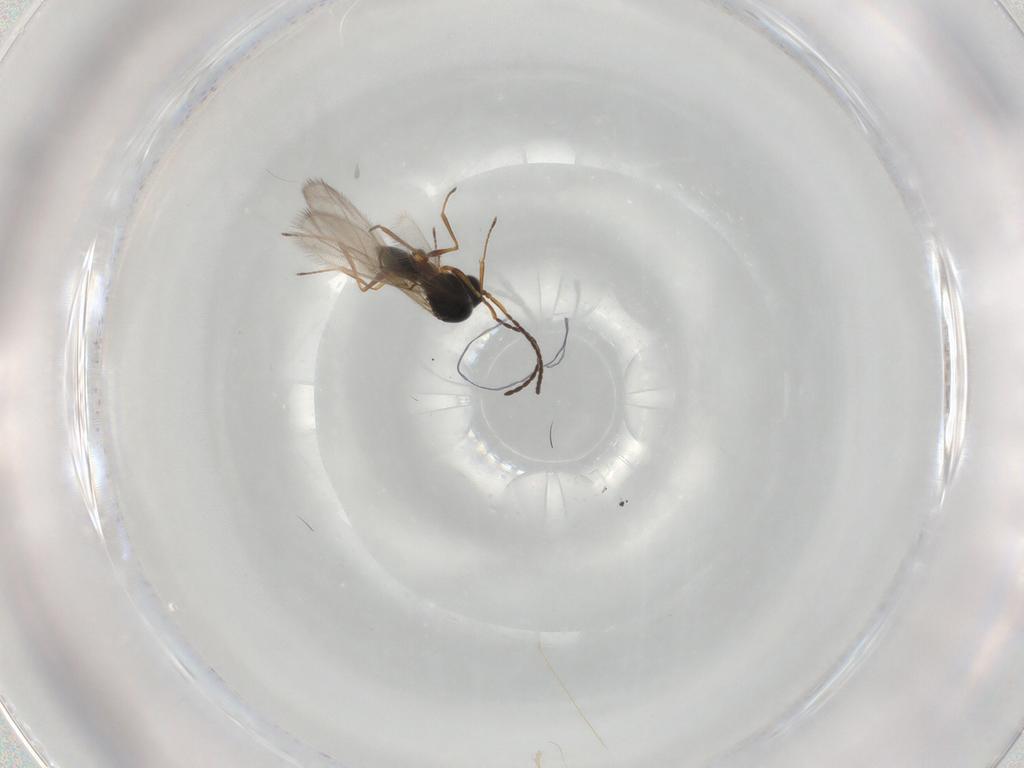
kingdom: Animalia
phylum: Arthropoda
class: Insecta
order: Hymenoptera
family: Figitidae
